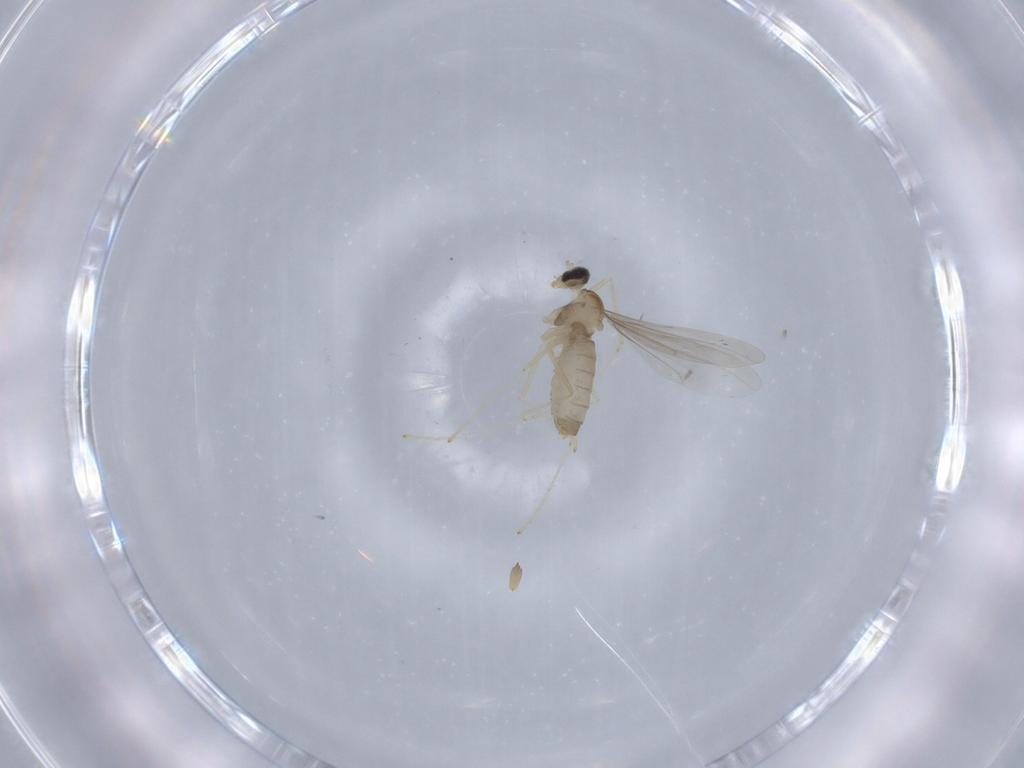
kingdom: Animalia
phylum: Arthropoda
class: Insecta
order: Diptera
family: Cecidomyiidae
